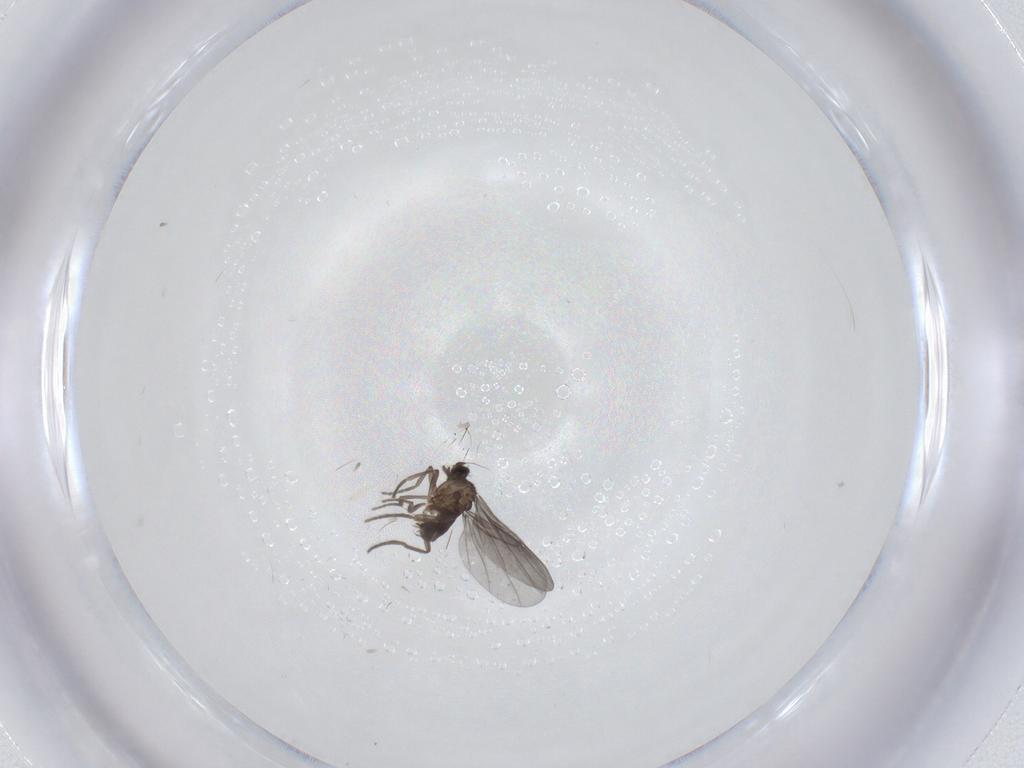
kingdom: Animalia
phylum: Arthropoda
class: Insecta
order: Diptera
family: Phoridae
